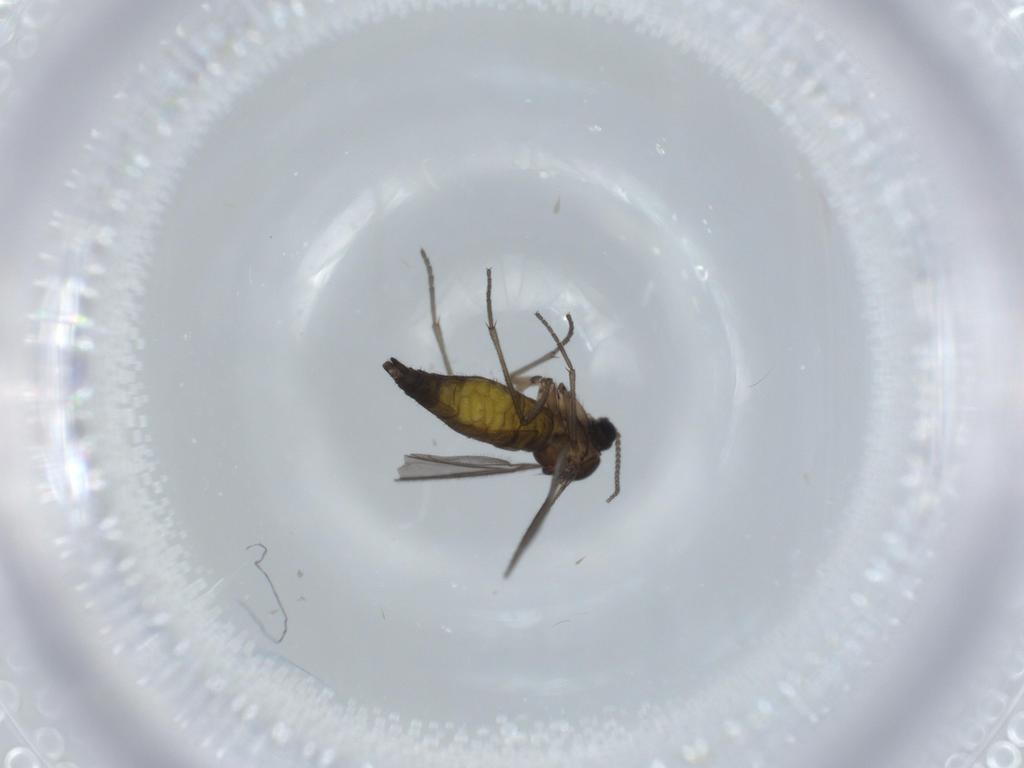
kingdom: Animalia
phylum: Arthropoda
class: Insecta
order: Diptera
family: Sciaridae
